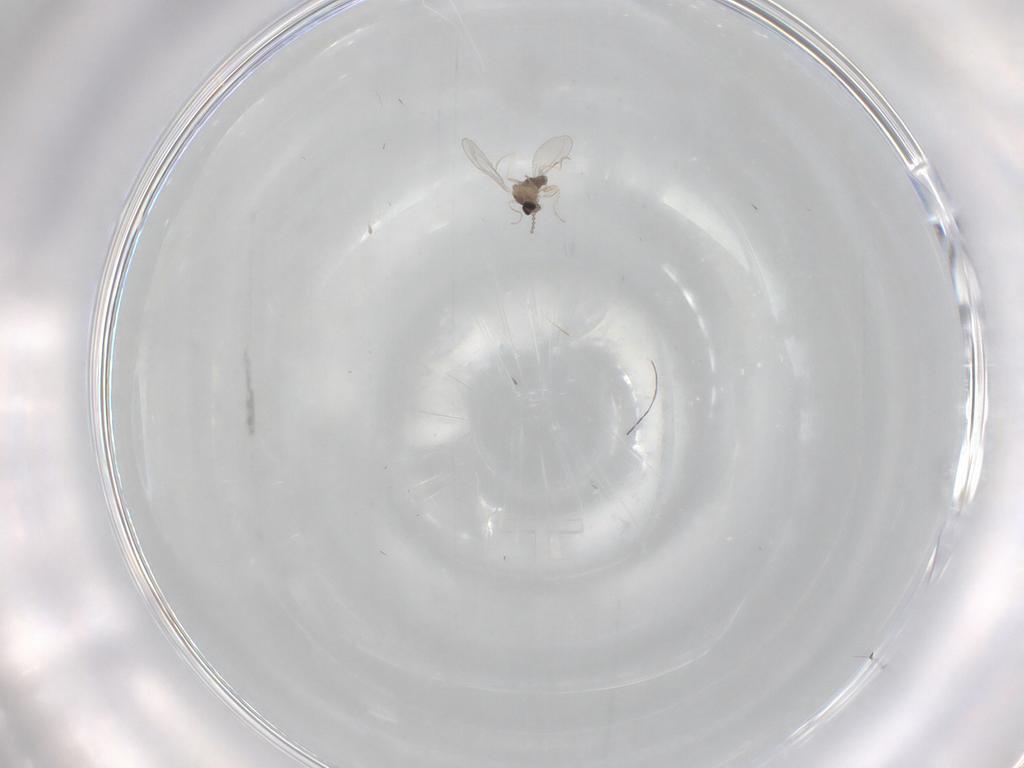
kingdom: Animalia
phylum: Arthropoda
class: Insecta
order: Diptera
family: Cecidomyiidae
